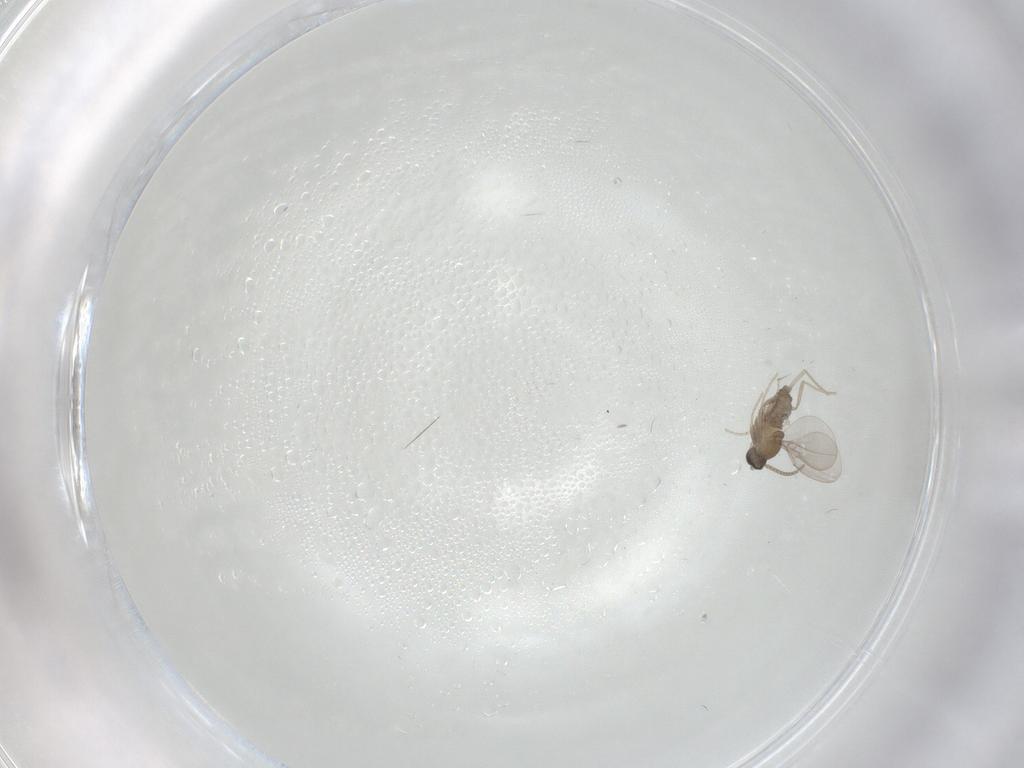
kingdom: Animalia
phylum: Arthropoda
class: Insecta
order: Diptera
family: Cecidomyiidae
